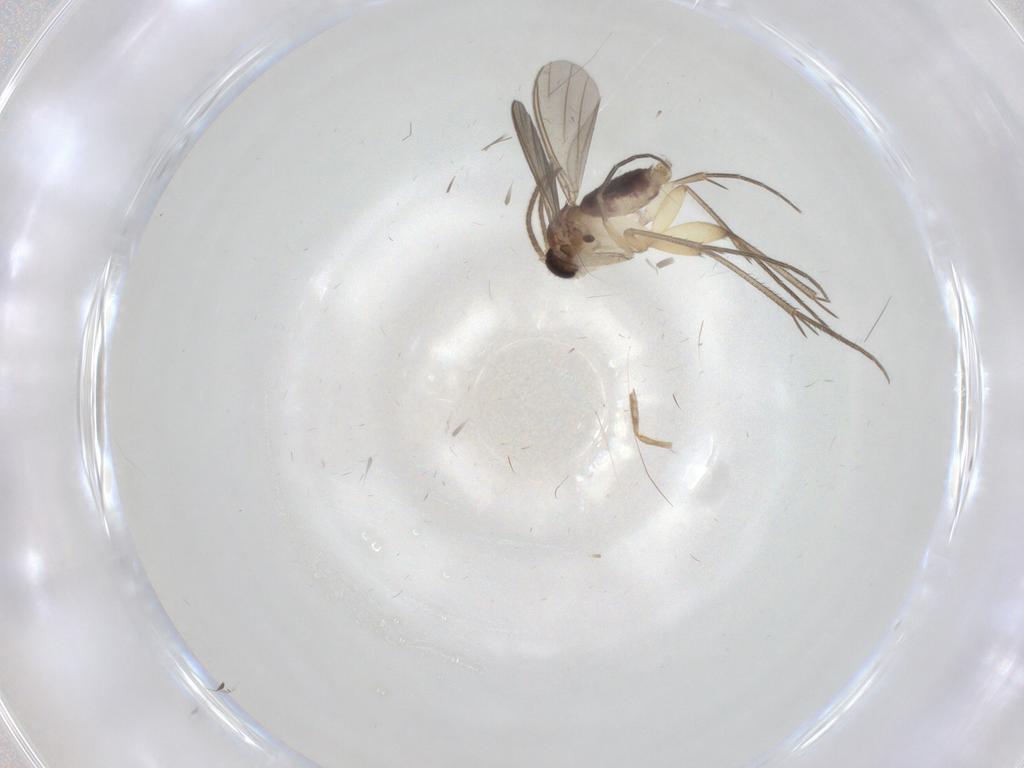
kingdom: Animalia
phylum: Arthropoda
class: Insecta
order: Diptera
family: Mycetophilidae
